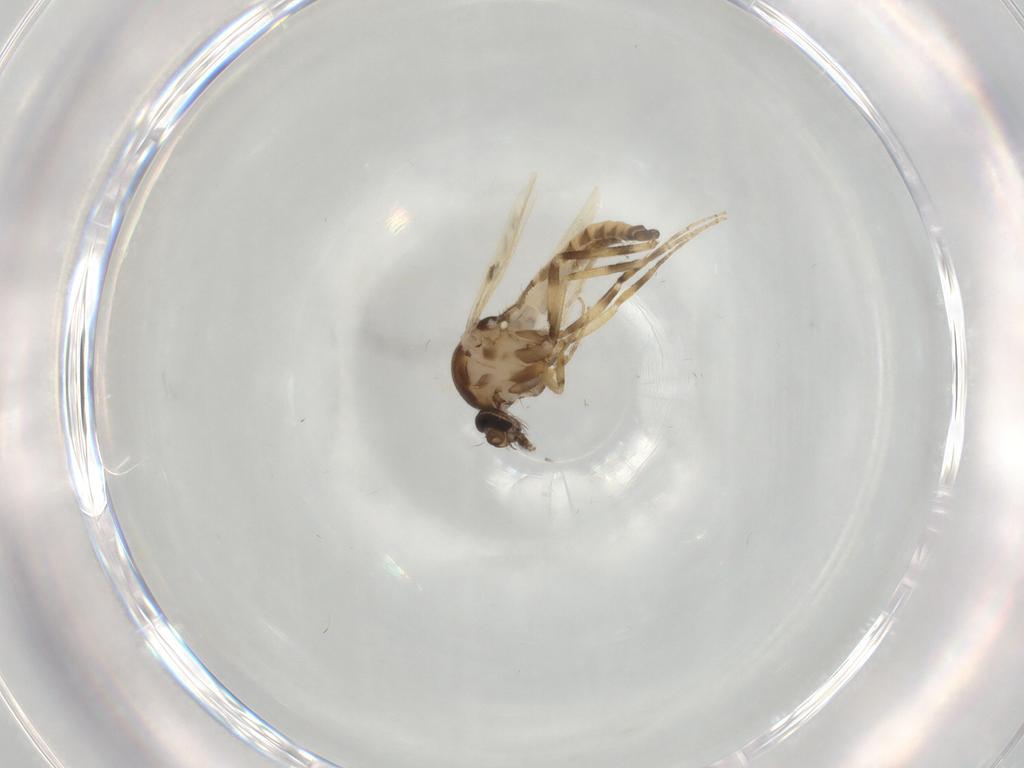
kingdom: Animalia
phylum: Arthropoda
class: Insecta
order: Diptera
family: Ceratopogonidae
